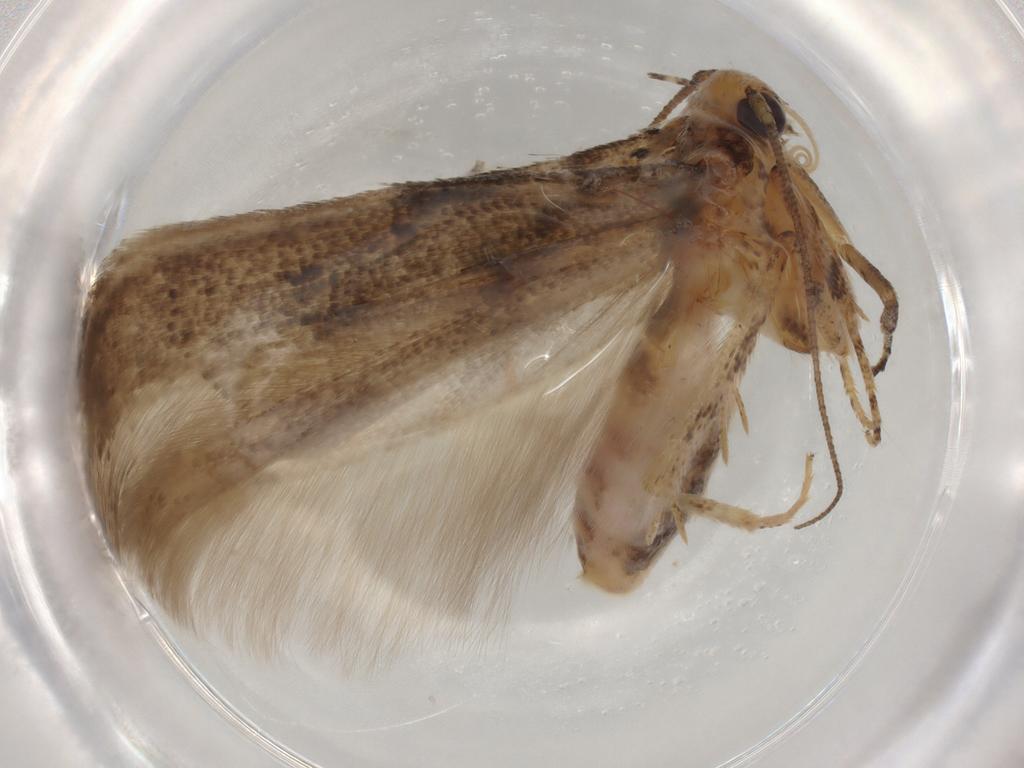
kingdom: Animalia
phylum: Arthropoda
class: Insecta
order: Lepidoptera
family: Gelechiidae
